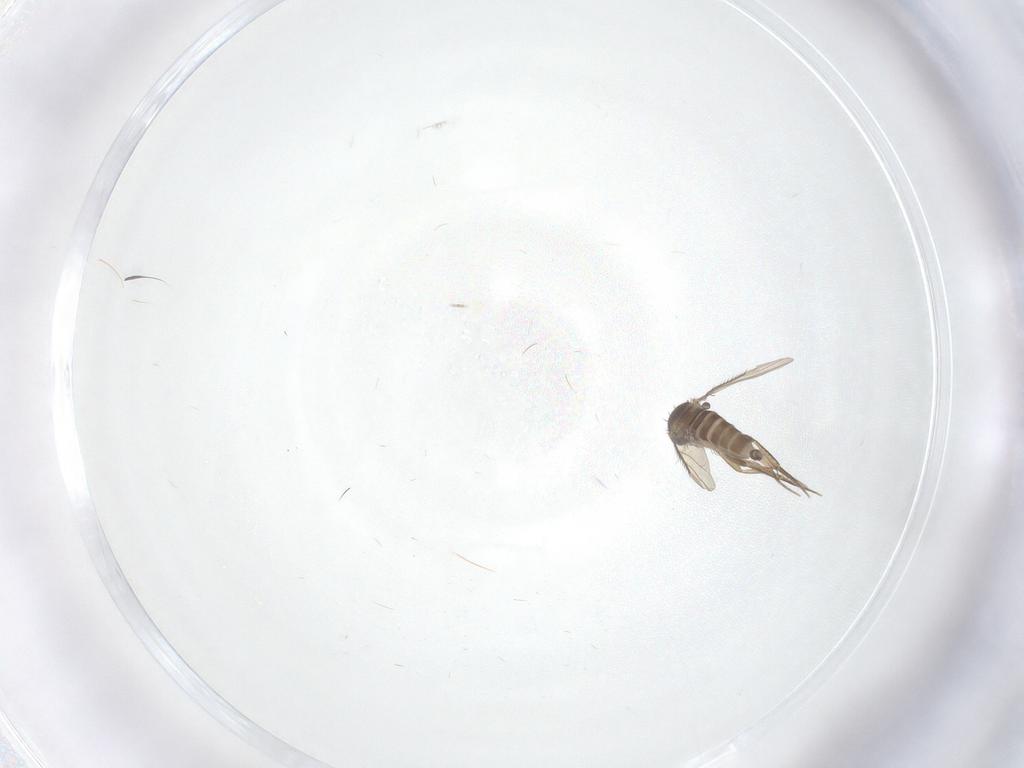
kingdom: Animalia
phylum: Arthropoda
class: Insecta
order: Diptera
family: Phoridae
